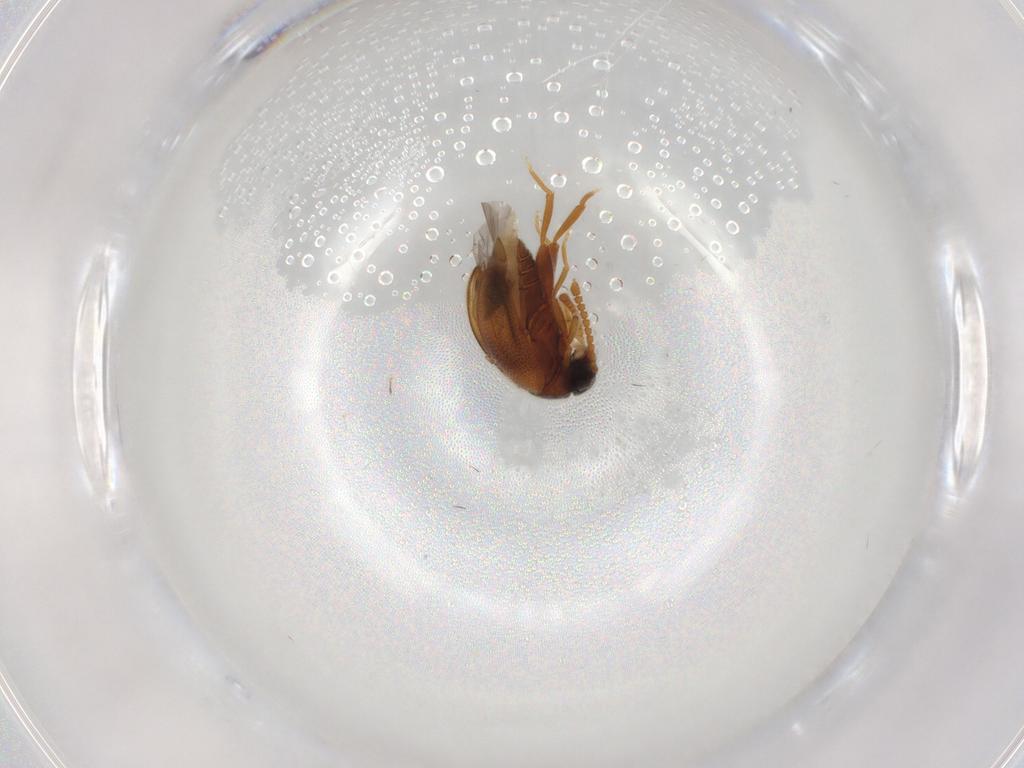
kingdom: Animalia
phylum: Arthropoda
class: Insecta
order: Coleoptera
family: Aderidae
